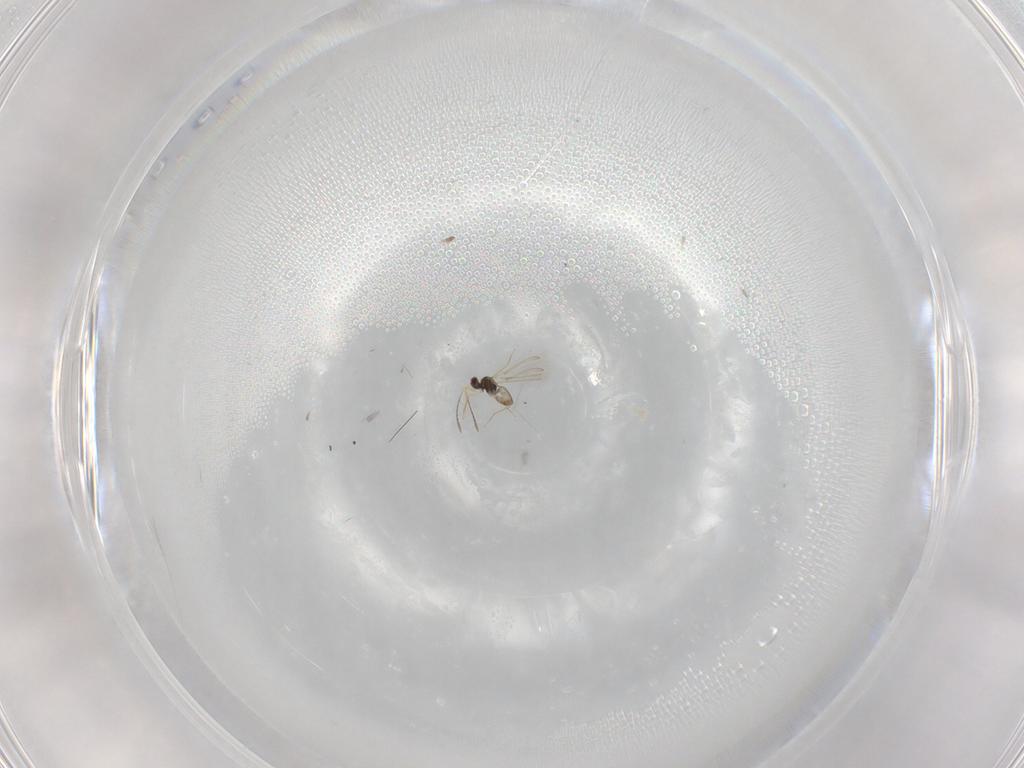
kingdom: Animalia
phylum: Arthropoda
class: Insecta
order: Hymenoptera
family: Mymaridae
